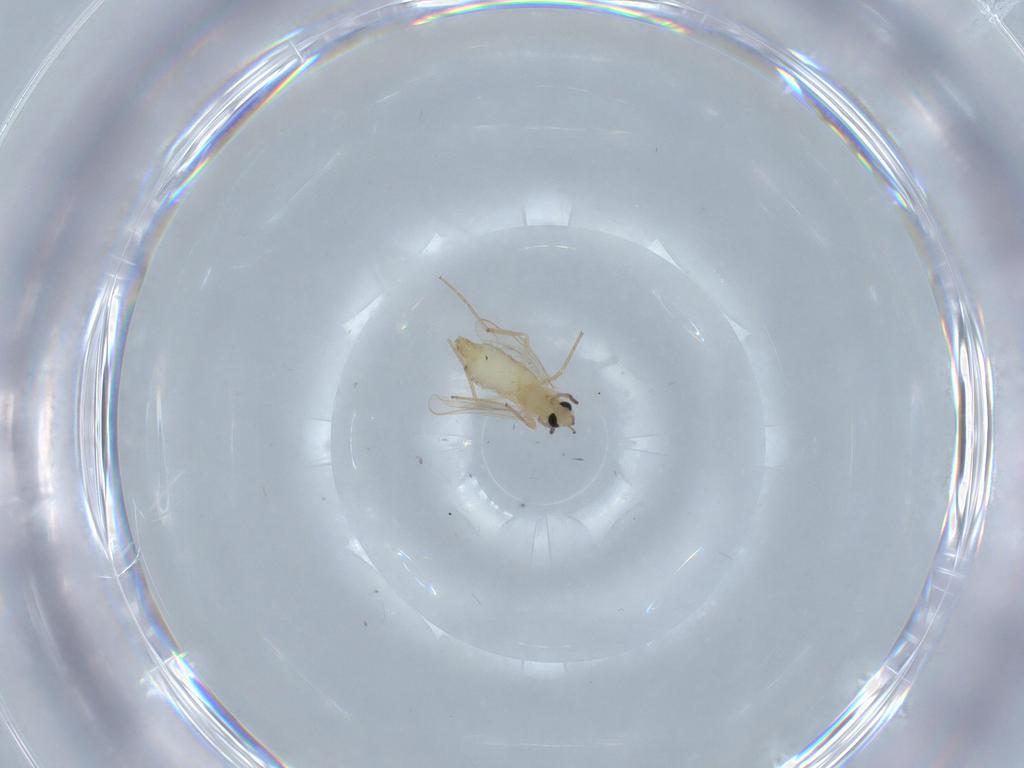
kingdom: Animalia
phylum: Arthropoda
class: Insecta
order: Diptera
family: Chironomidae
